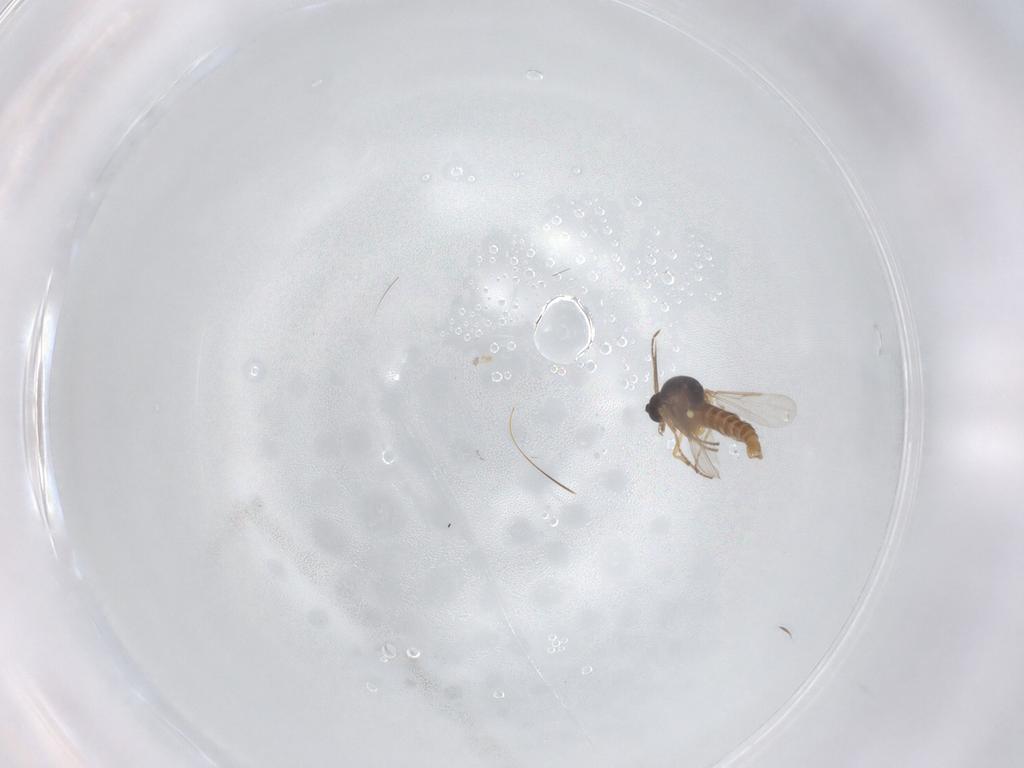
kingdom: Animalia
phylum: Arthropoda
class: Insecta
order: Diptera
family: Ceratopogonidae
